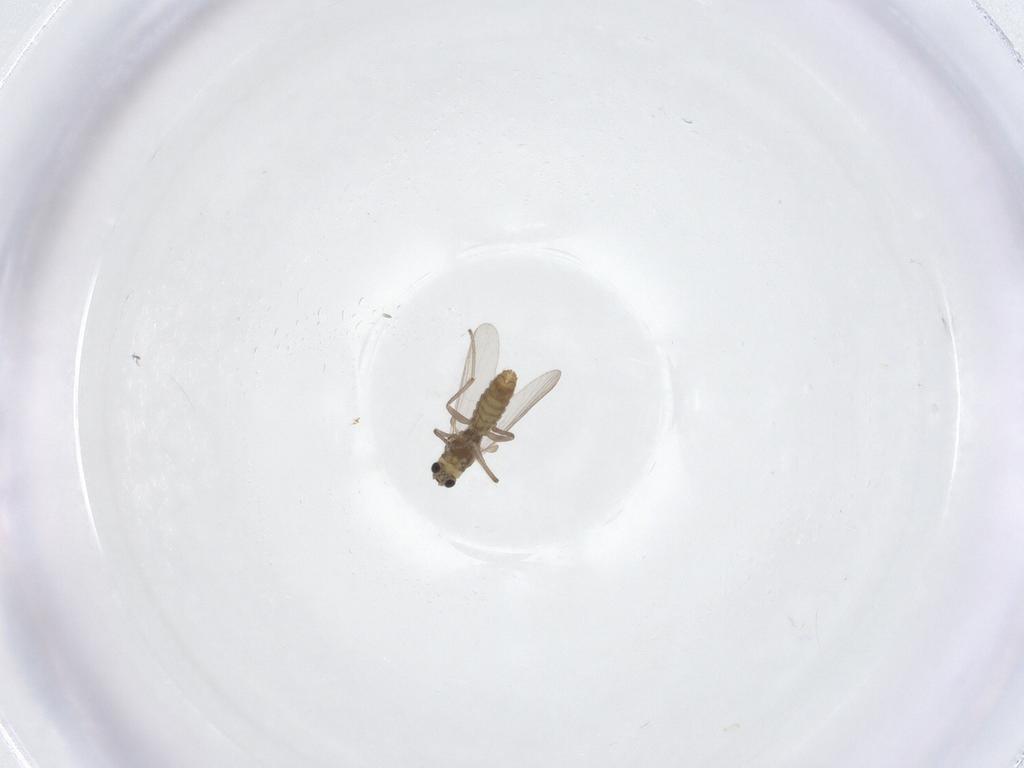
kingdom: Animalia
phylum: Arthropoda
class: Insecta
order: Diptera
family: Chironomidae
